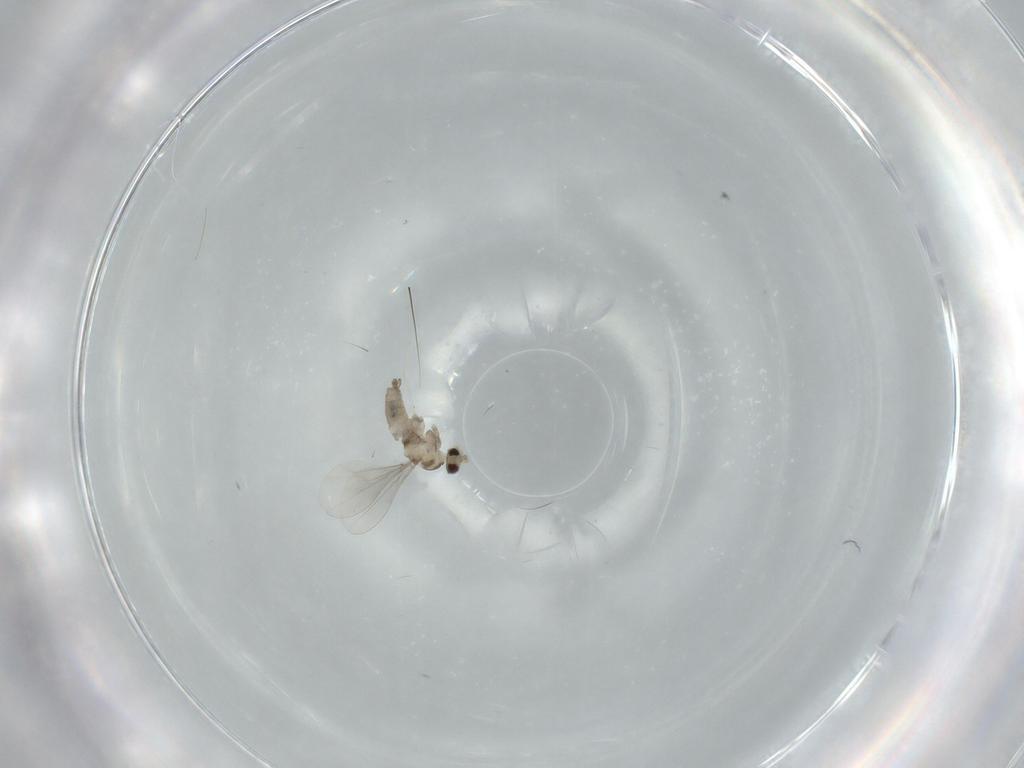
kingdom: Animalia
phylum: Arthropoda
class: Insecta
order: Diptera
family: Cecidomyiidae
